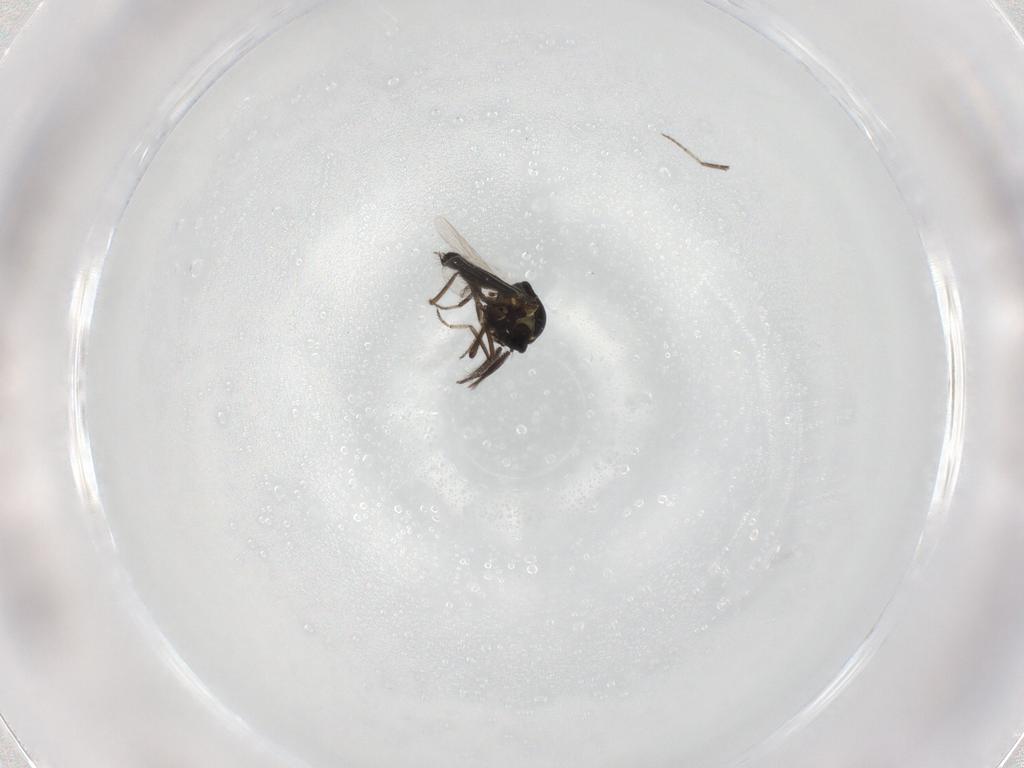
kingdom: Animalia
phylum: Arthropoda
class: Insecta
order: Diptera
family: Ceratopogonidae
